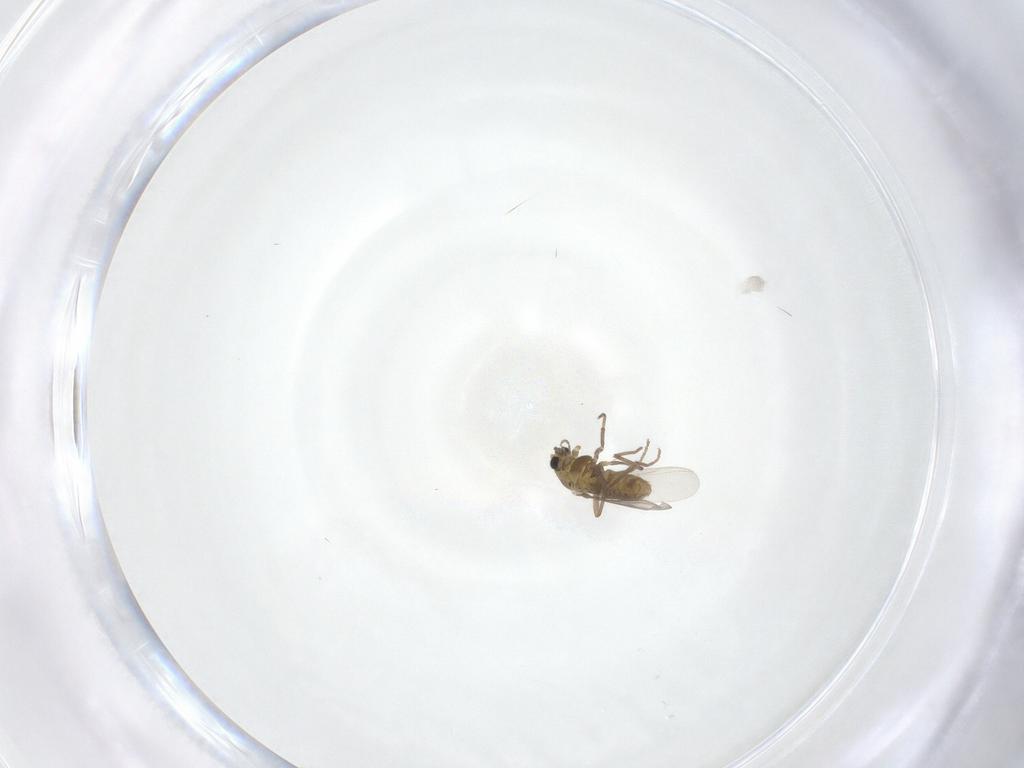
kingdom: Animalia
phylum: Arthropoda
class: Insecta
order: Diptera
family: Chironomidae
